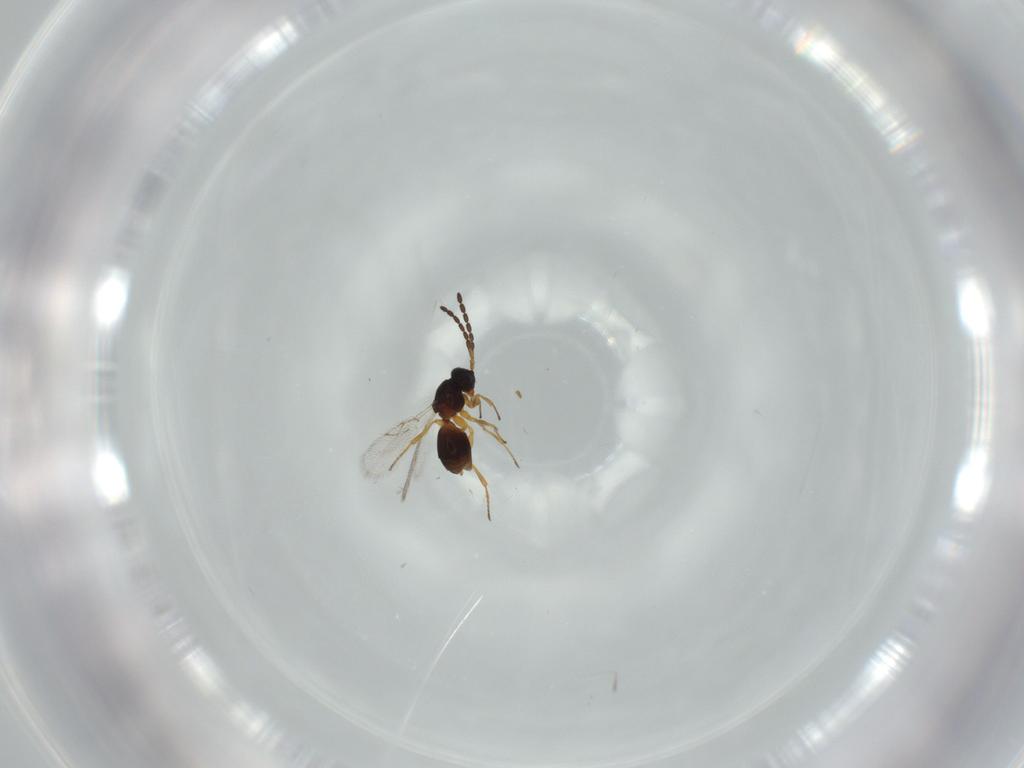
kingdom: Animalia
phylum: Arthropoda
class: Insecta
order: Hymenoptera
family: Figitidae
